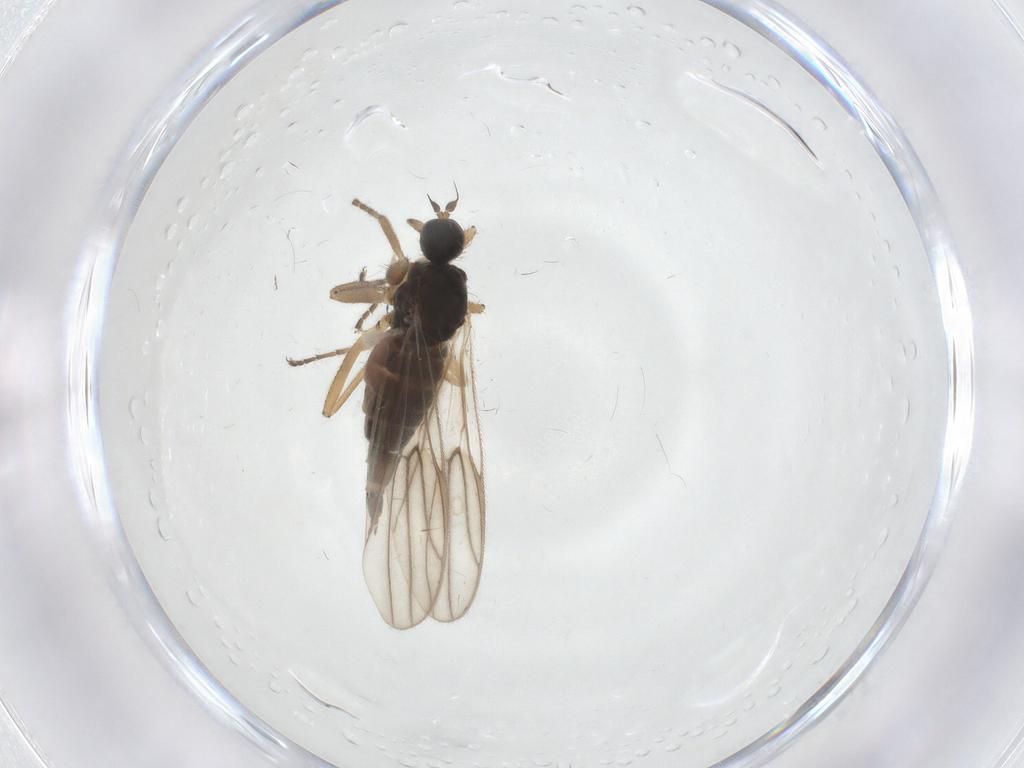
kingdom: Animalia
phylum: Arthropoda
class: Insecta
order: Diptera
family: Hybotidae
